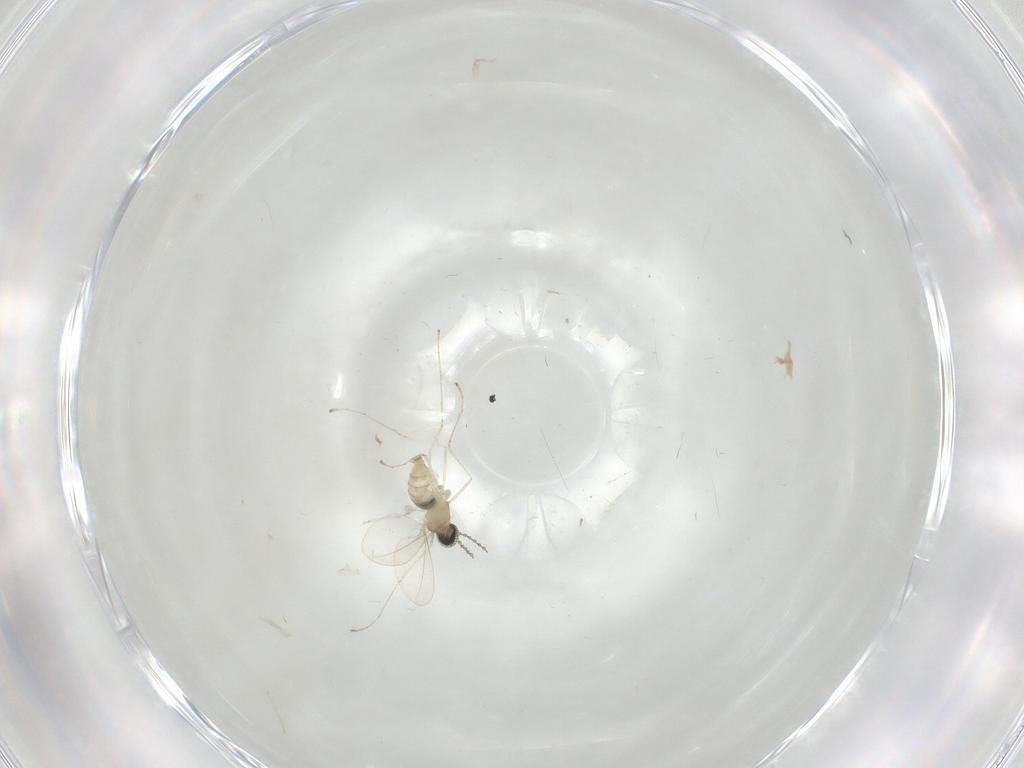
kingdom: Animalia
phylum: Arthropoda
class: Insecta
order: Diptera
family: Cecidomyiidae
